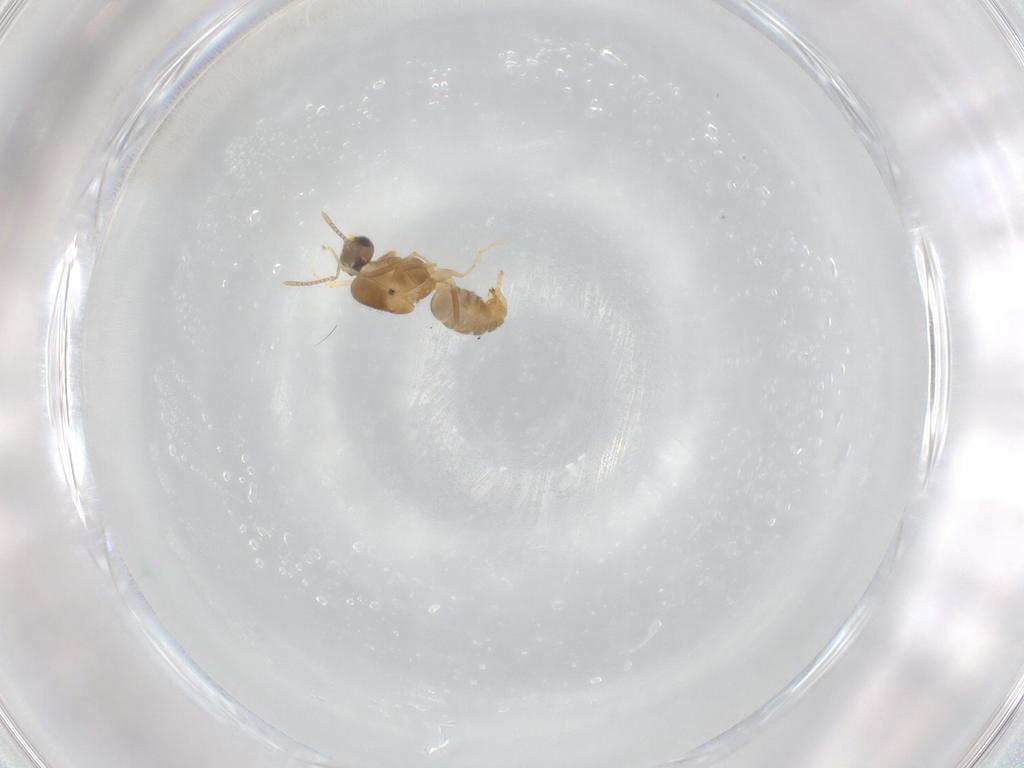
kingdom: Animalia
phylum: Arthropoda
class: Insecta
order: Hymenoptera
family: Formicidae
